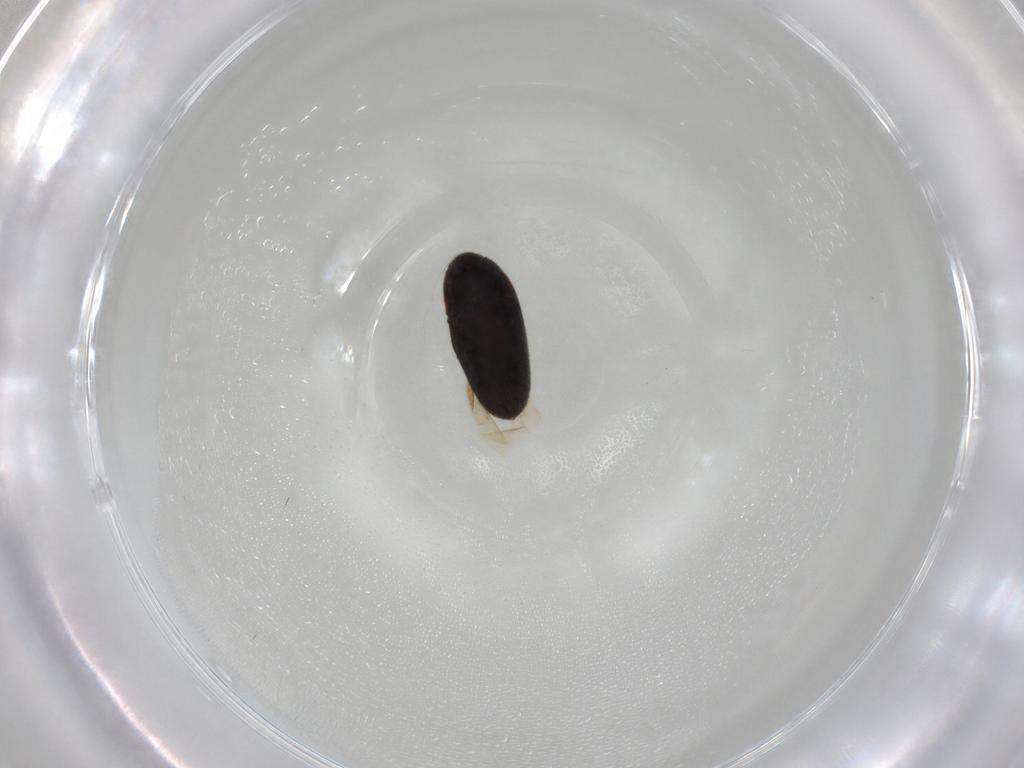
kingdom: Animalia
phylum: Arthropoda
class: Insecta
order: Coleoptera
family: Throscidae
